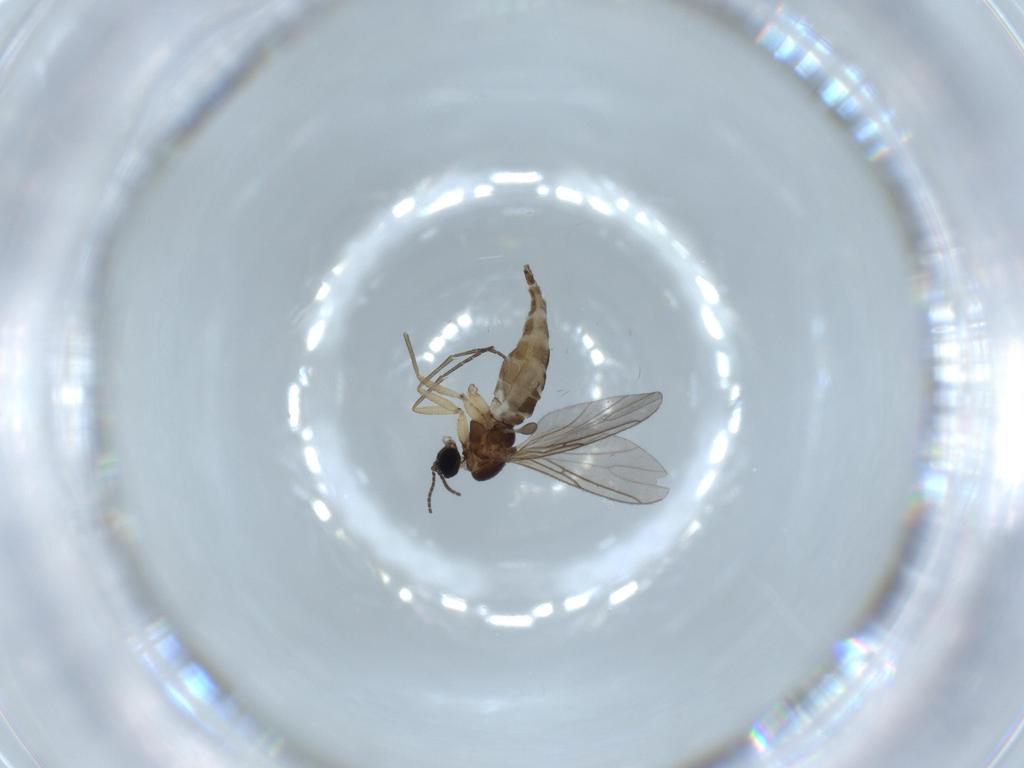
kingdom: Animalia
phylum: Arthropoda
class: Insecta
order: Diptera
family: Sciaridae
